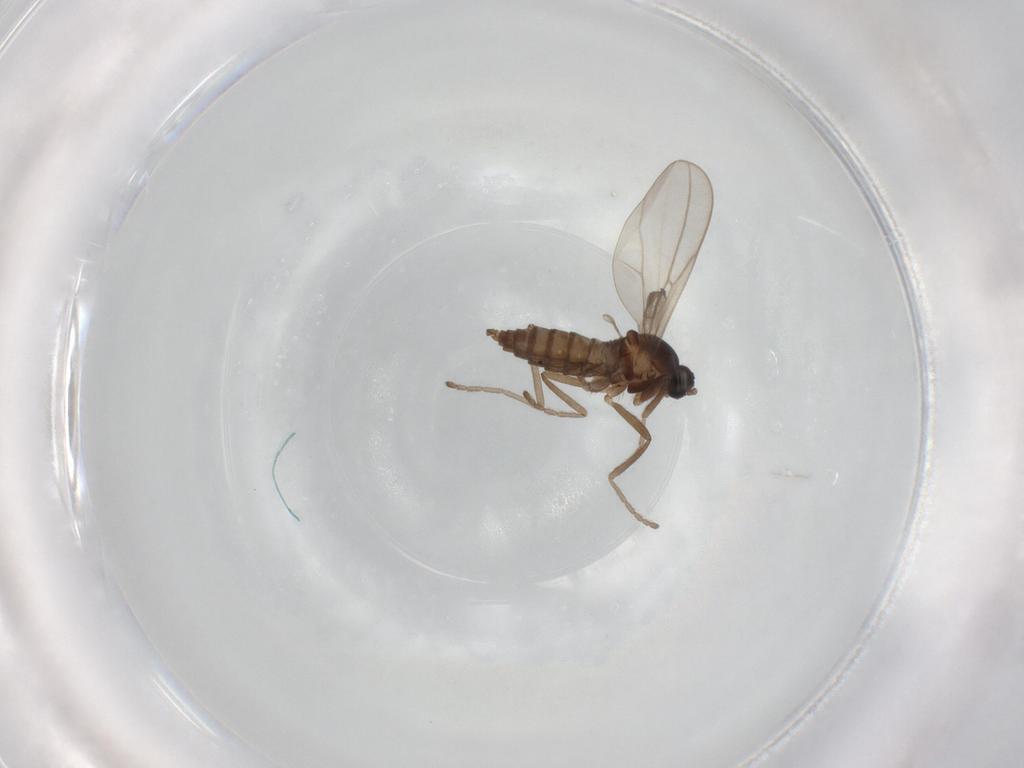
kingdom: Animalia
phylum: Arthropoda
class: Insecta
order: Diptera
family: Cecidomyiidae
